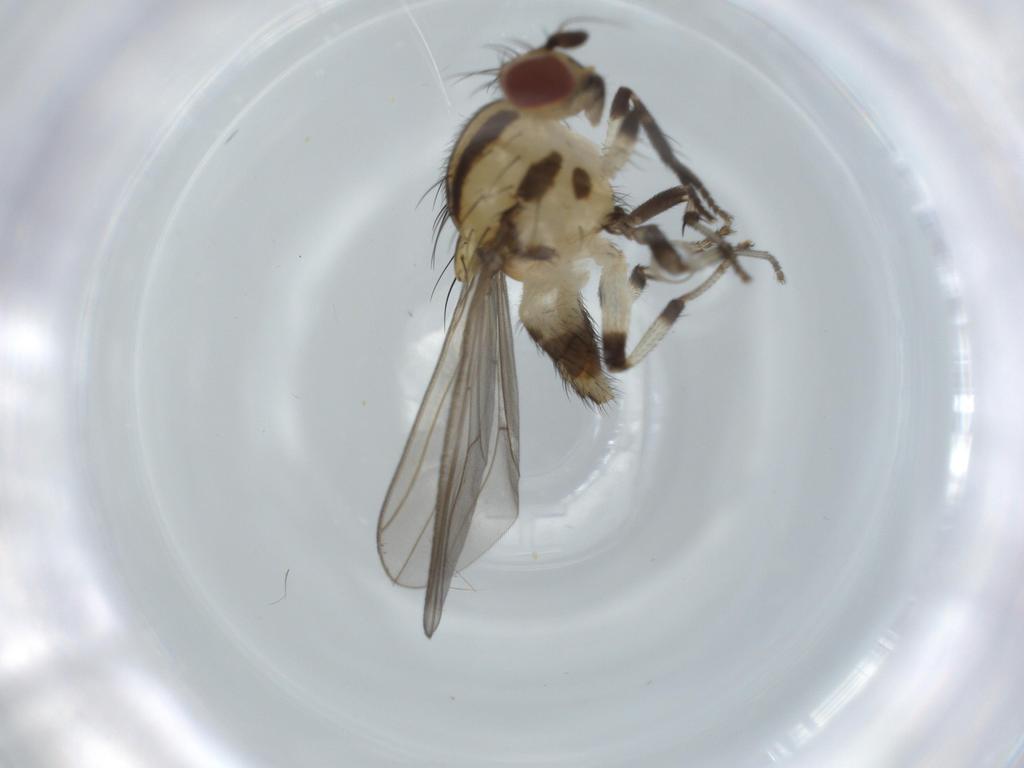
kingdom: Animalia
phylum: Arthropoda
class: Insecta
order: Diptera
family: Lauxaniidae
